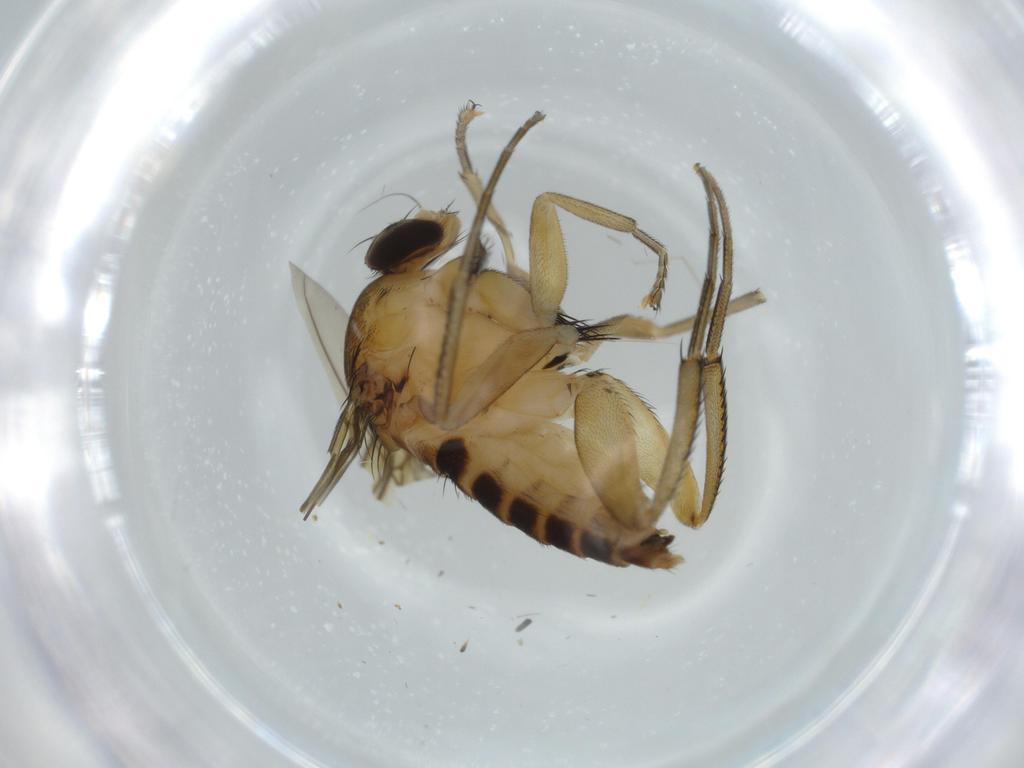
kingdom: Animalia
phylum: Arthropoda
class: Insecta
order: Diptera
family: Cecidomyiidae
